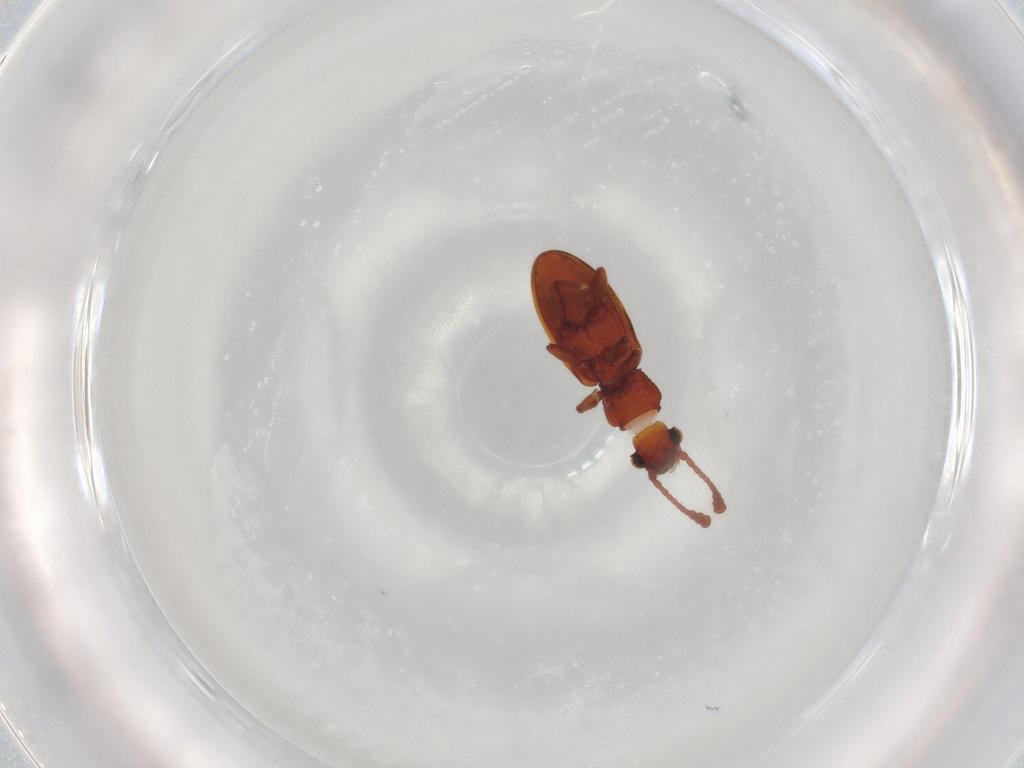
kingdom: Animalia
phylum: Arthropoda
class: Insecta
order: Coleoptera
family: Silvanidae
